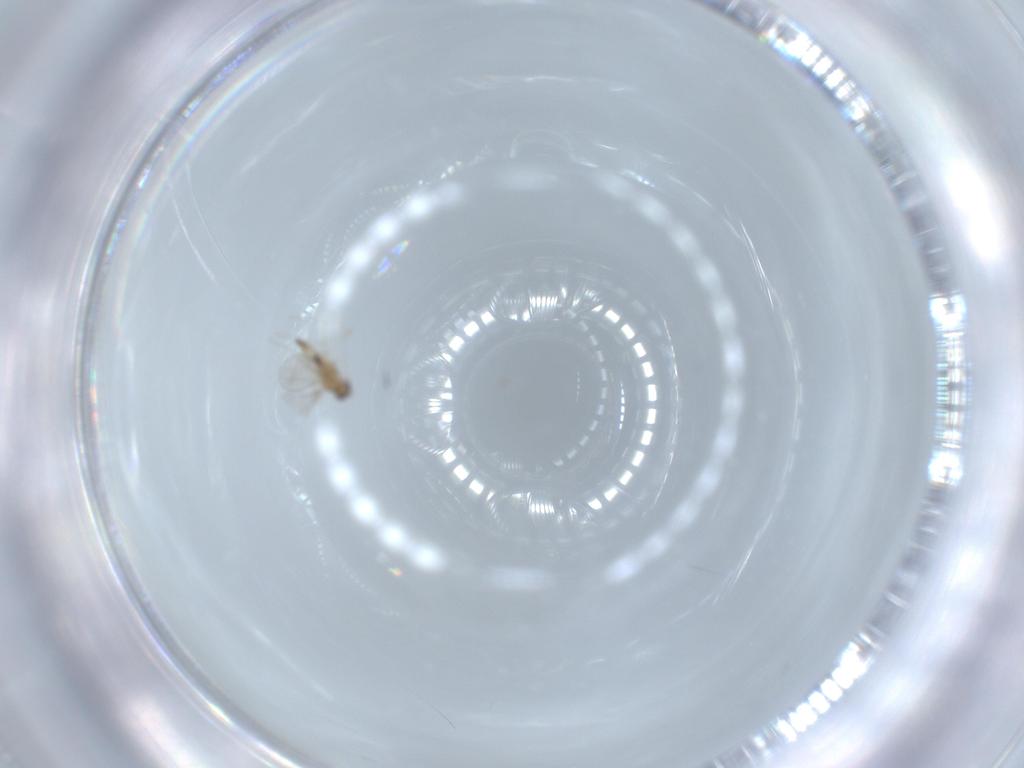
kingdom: Animalia
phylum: Arthropoda
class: Insecta
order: Diptera
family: Cecidomyiidae
